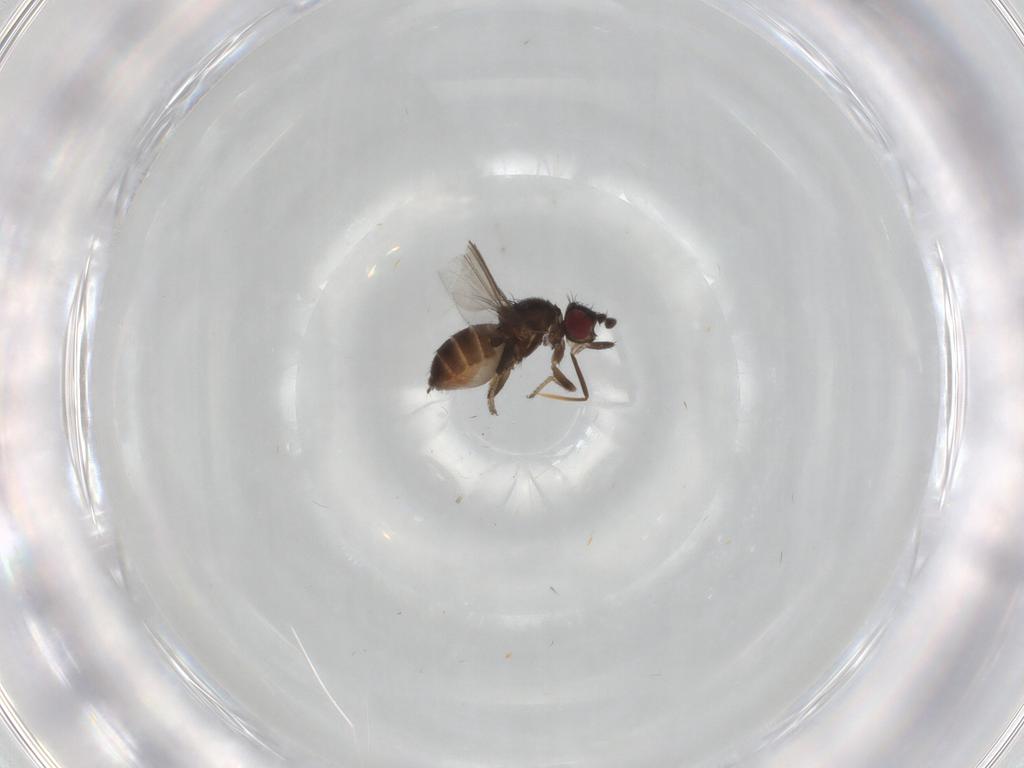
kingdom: Animalia
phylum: Arthropoda
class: Insecta
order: Diptera
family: Milichiidae
